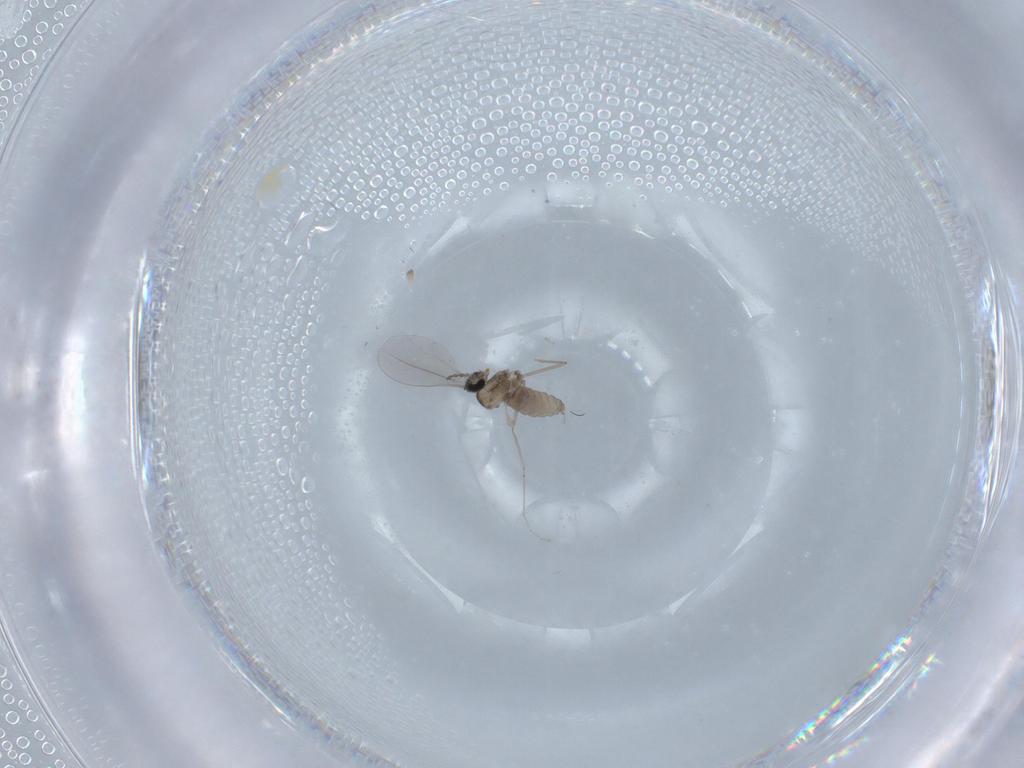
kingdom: Animalia
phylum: Arthropoda
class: Insecta
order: Diptera
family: Cecidomyiidae
